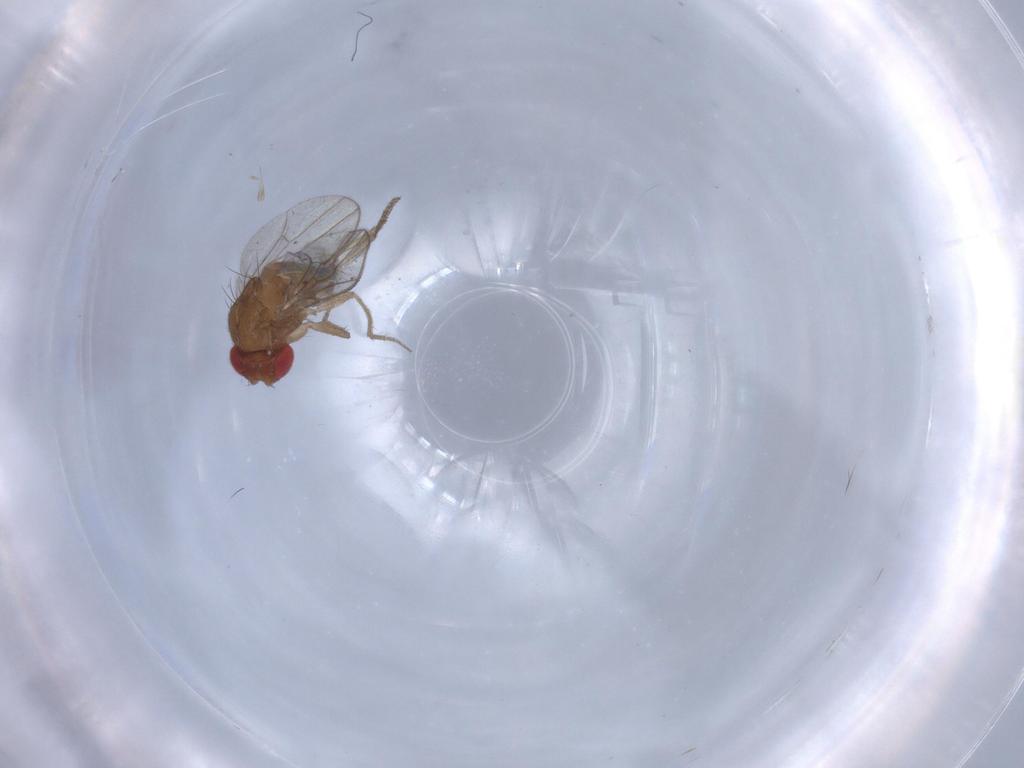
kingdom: Animalia
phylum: Arthropoda
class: Insecta
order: Diptera
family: Drosophilidae
